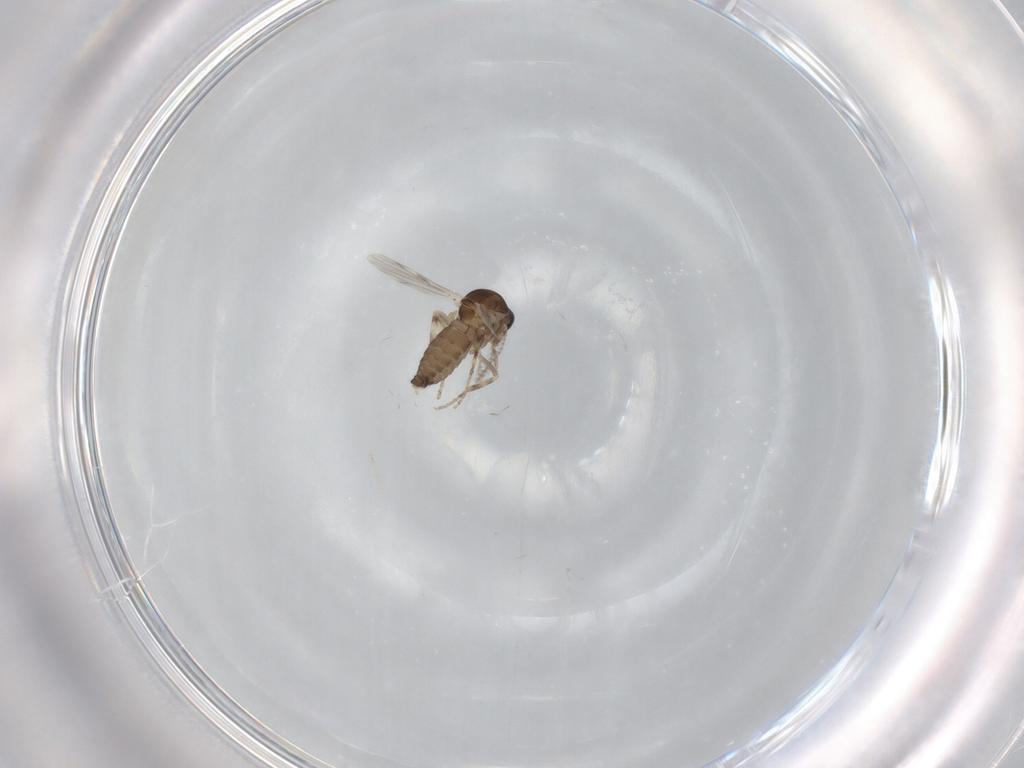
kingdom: Animalia
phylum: Arthropoda
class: Insecta
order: Diptera
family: Ceratopogonidae
